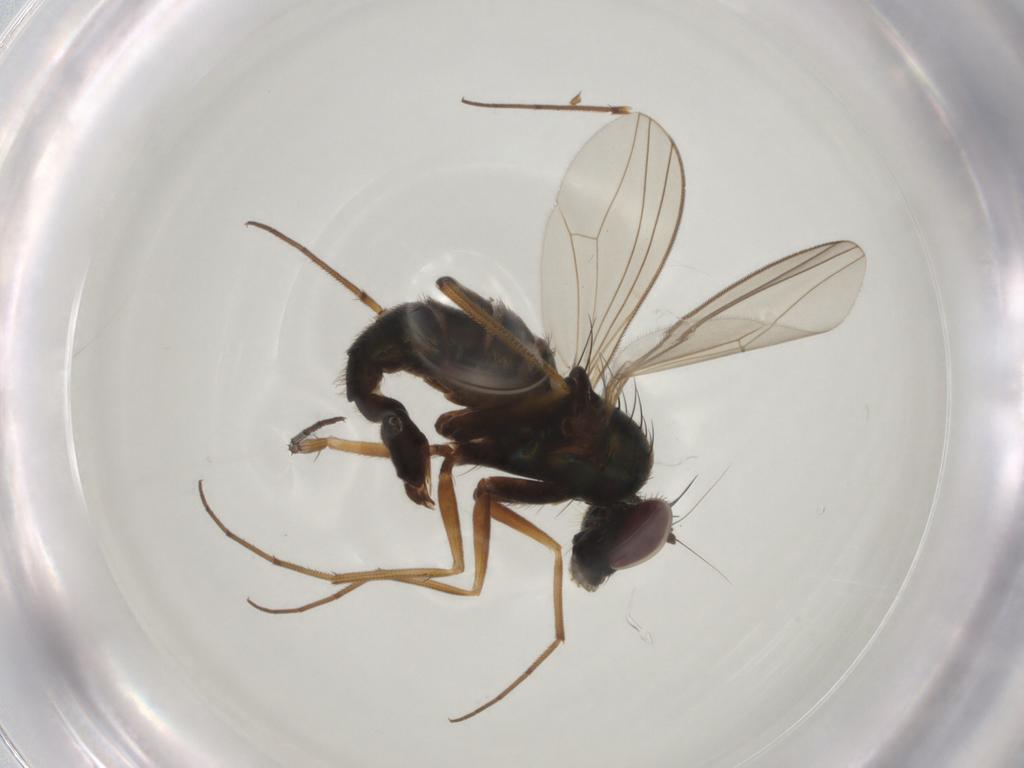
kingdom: Animalia
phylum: Arthropoda
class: Insecta
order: Diptera
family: Dolichopodidae
